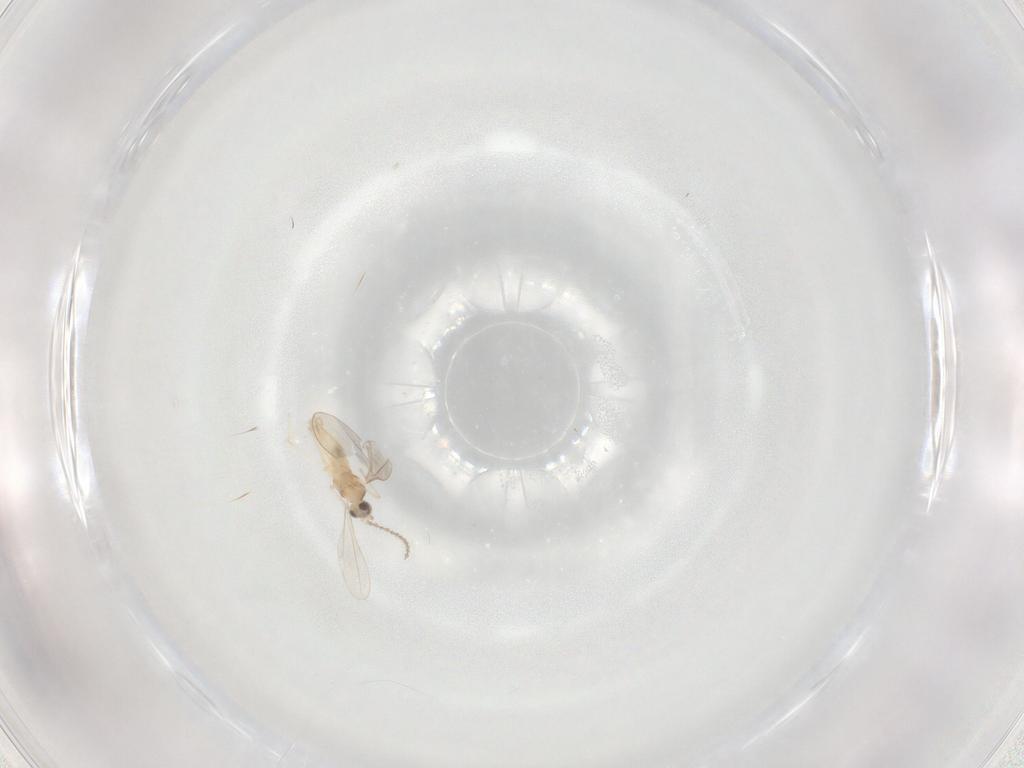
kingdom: Animalia
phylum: Arthropoda
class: Insecta
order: Diptera
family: Cecidomyiidae
